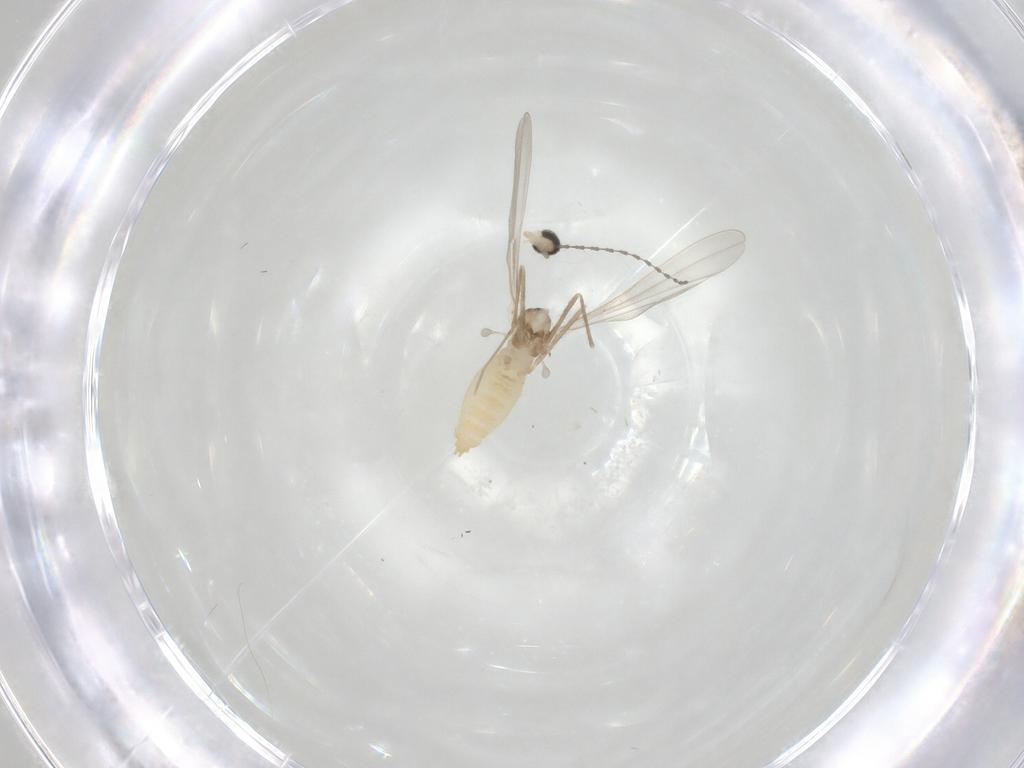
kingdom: Animalia
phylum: Arthropoda
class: Insecta
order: Diptera
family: Cecidomyiidae
